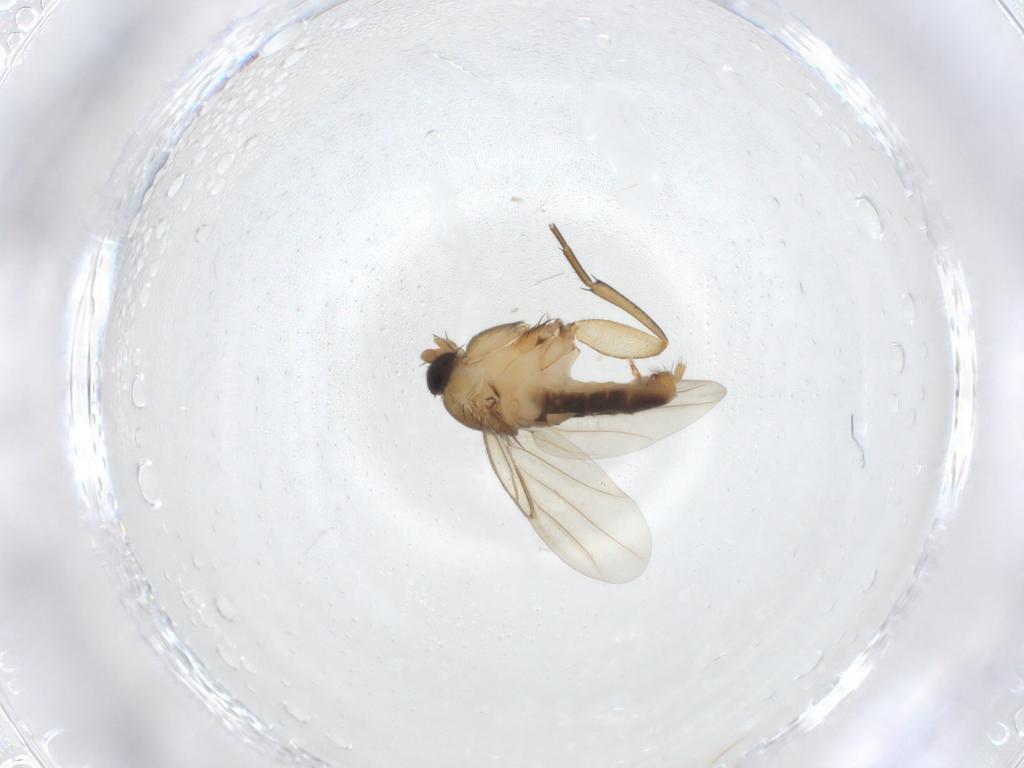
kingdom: Animalia
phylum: Arthropoda
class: Insecta
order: Diptera
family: Phoridae
